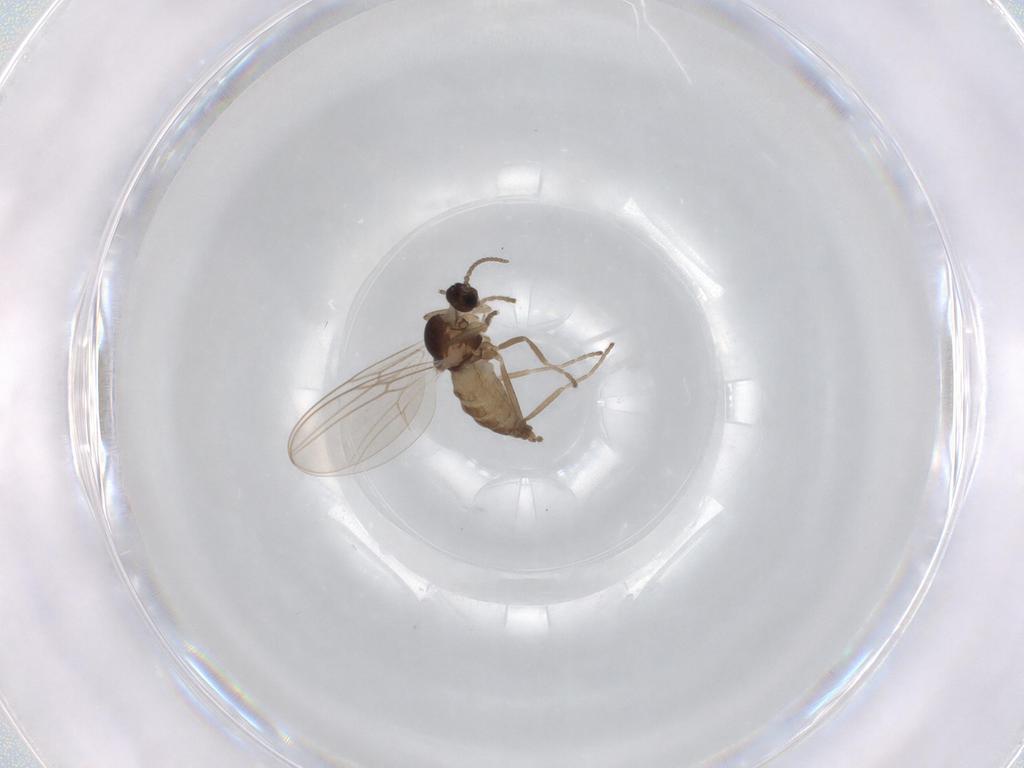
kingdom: Animalia
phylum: Arthropoda
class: Insecta
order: Diptera
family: Cecidomyiidae
